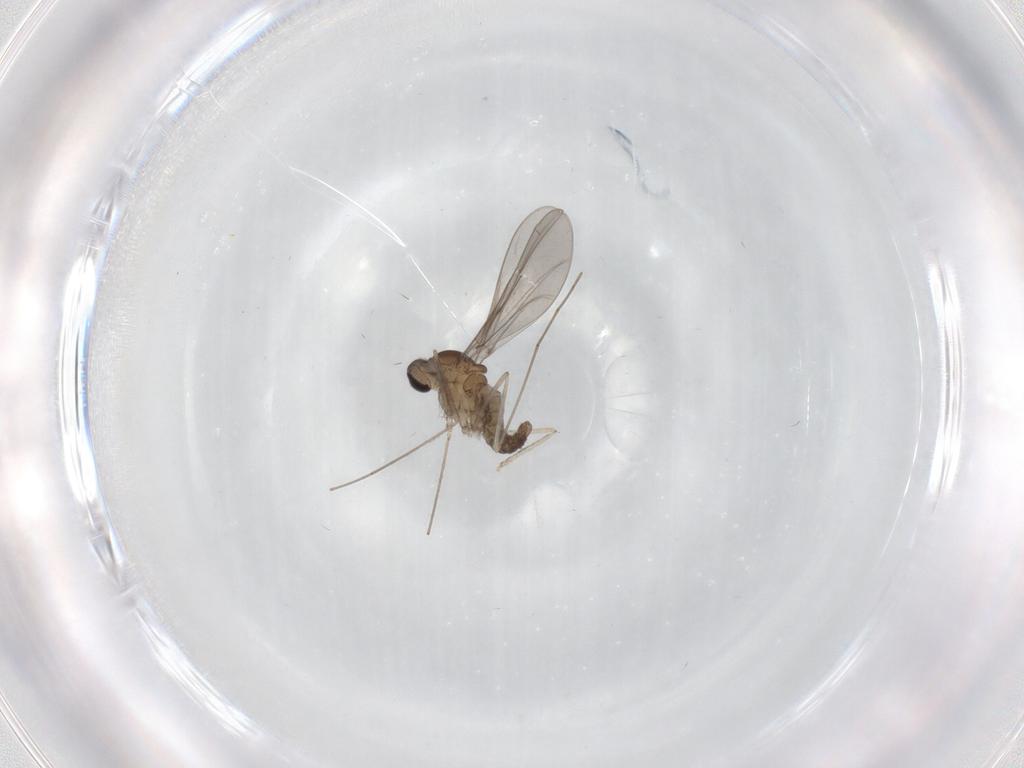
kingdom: Animalia
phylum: Arthropoda
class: Insecta
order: Diptera
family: Cecidomyiidae
